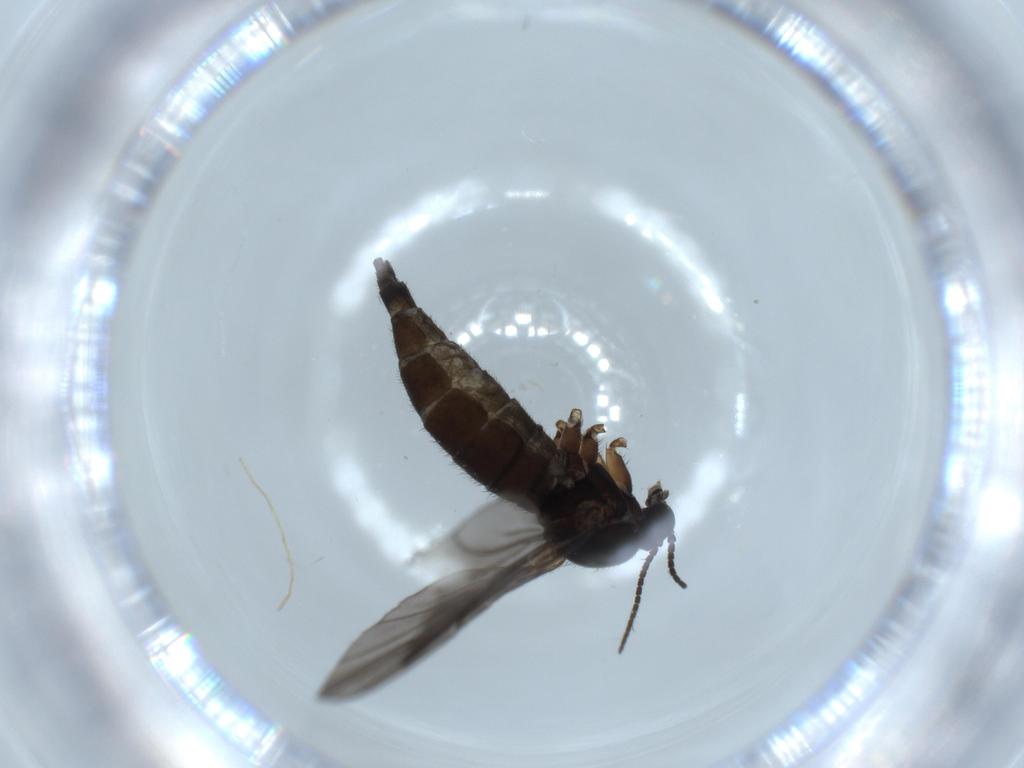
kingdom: Animalia
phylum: Arthropoda
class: Insecta
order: Diptera
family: Sciaridae
